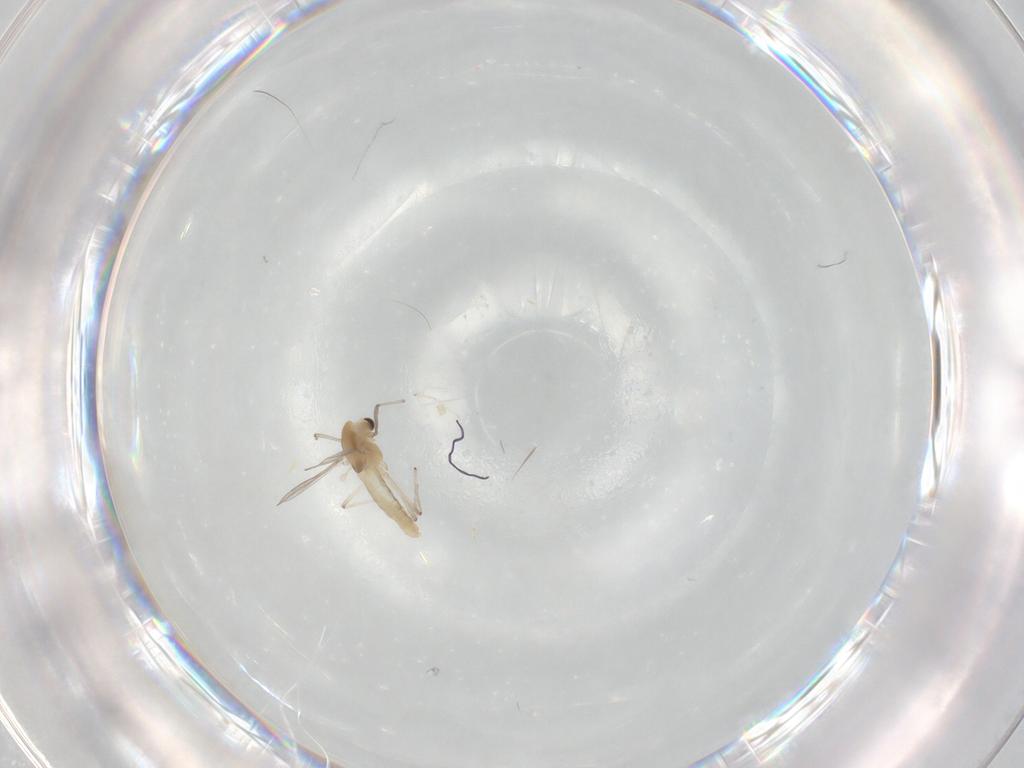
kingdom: Animalia
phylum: Arthropoda
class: Insecta
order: Diptera
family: Chironomidae
